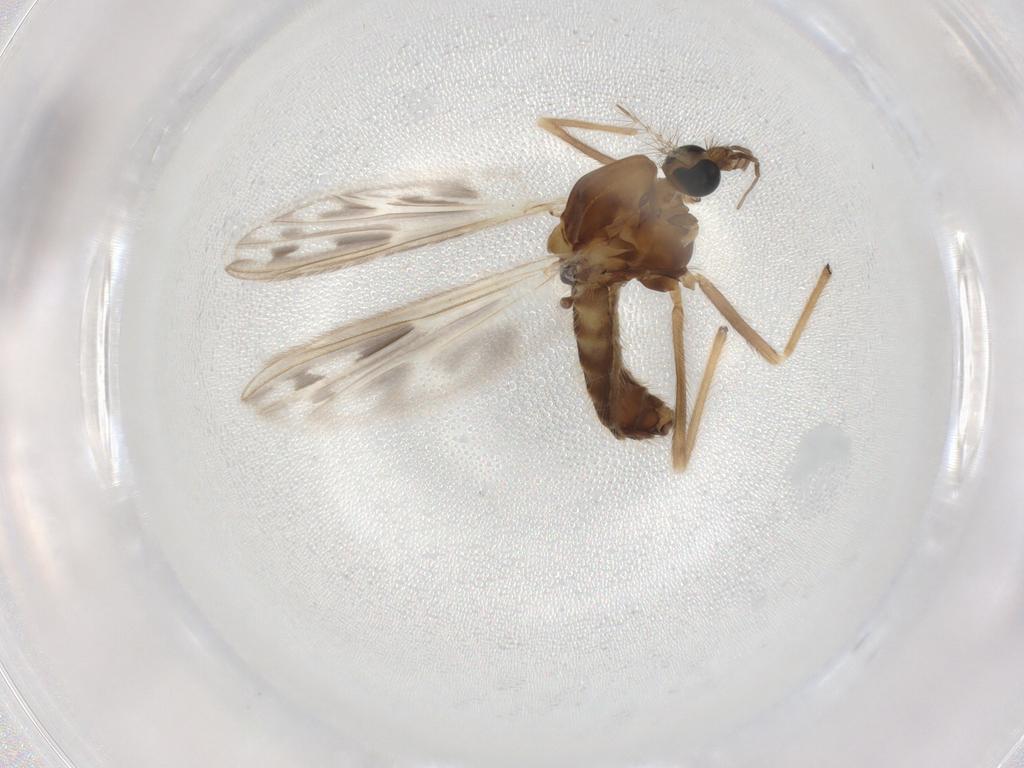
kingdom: Animalia
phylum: Arthropoda
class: Insecta
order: Diptera
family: Chironomidae
